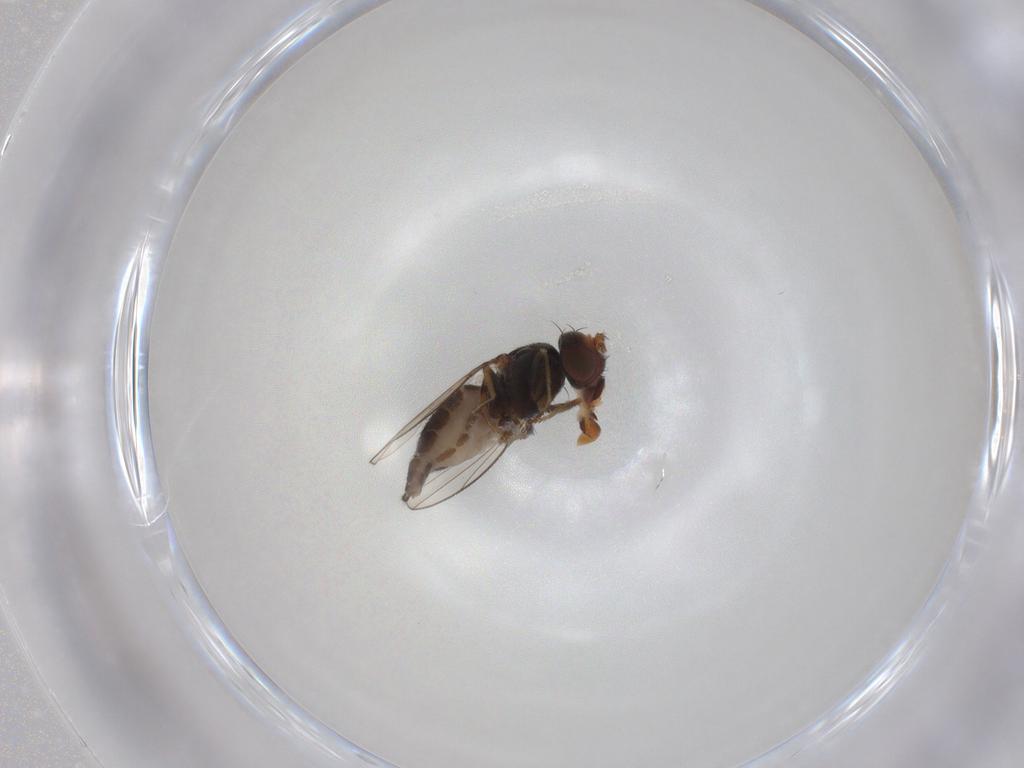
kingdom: Animalia
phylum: Arthropoda
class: Insecta
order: Diptera
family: Ephydridae
